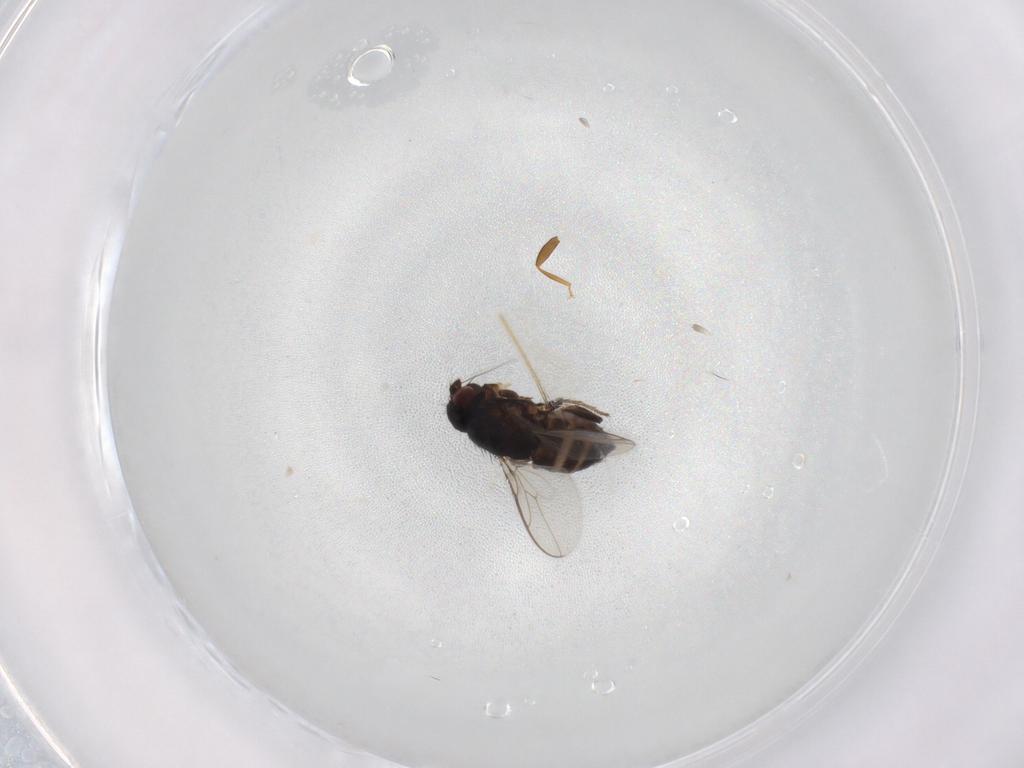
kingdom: Animalia
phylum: Arthropoda
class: Insecta
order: Diptera
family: Sphaeroceridae
